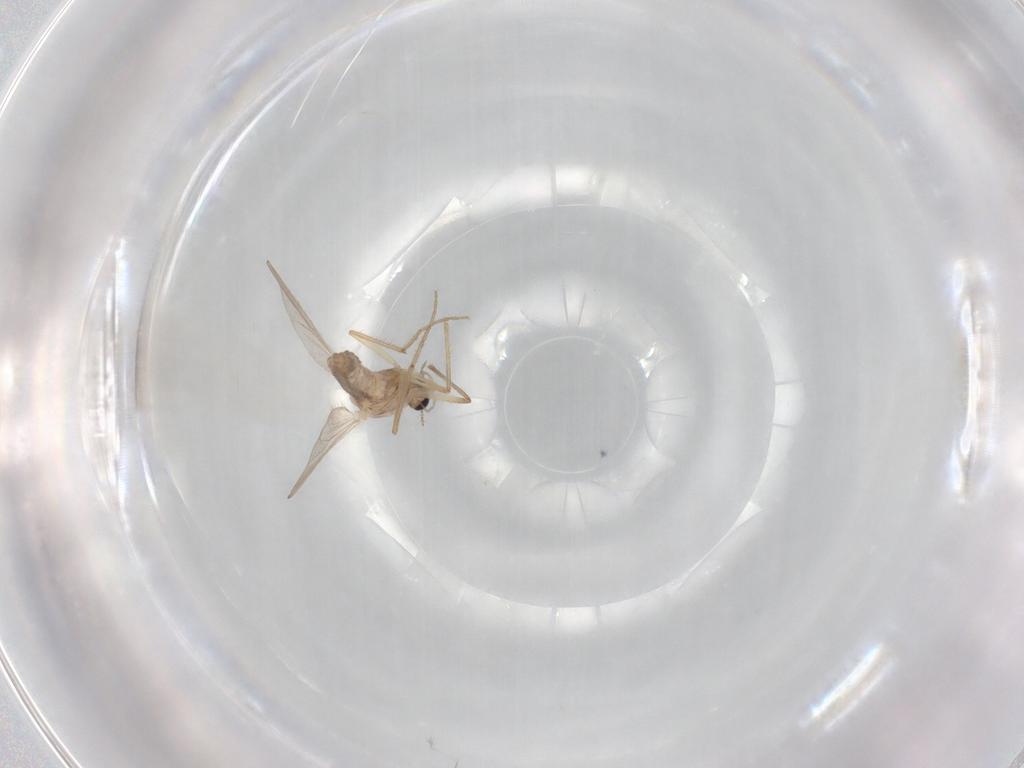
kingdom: Animalia
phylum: Arthropoda
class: Insecta
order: Diptera
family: Chironomidae
